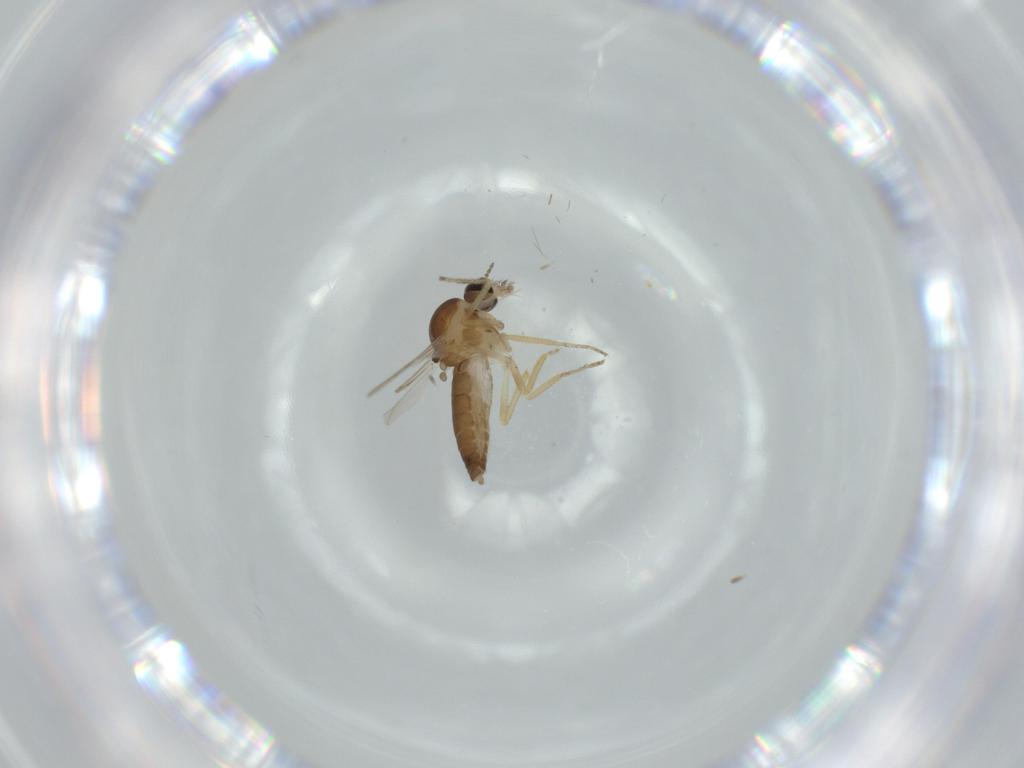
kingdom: Animalia
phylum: Arthropoda
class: Insecta
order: Diptera
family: Ceratopogonidae
